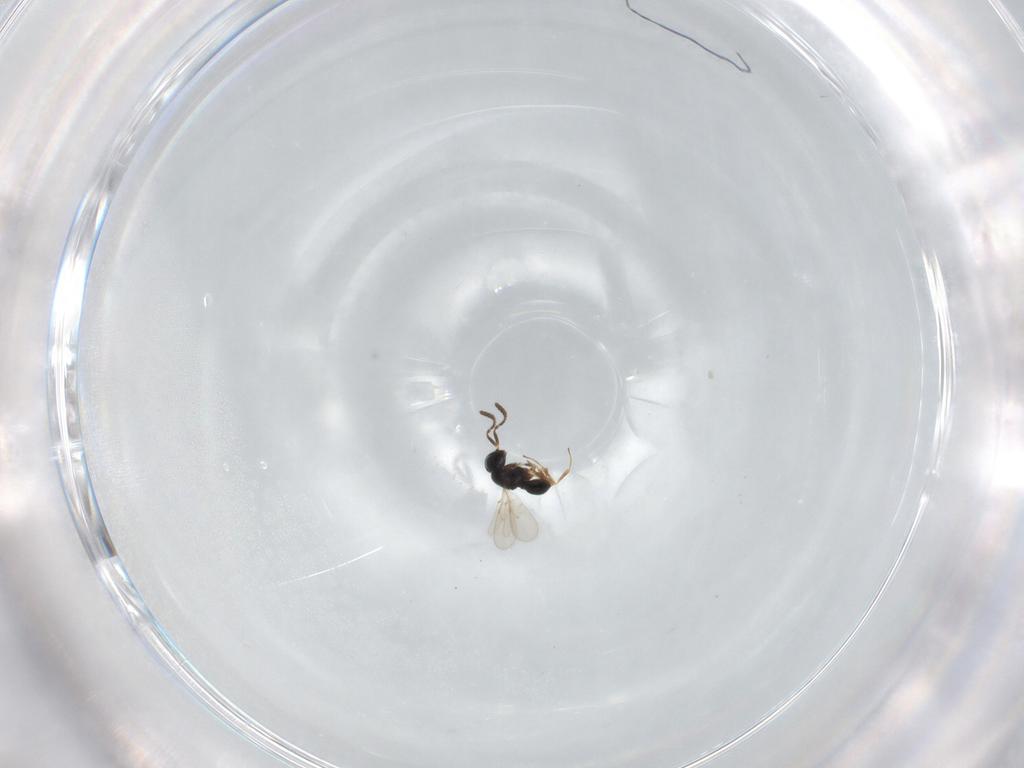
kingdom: Animalia
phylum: Arthropoda
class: Insecta
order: Hymenoptera
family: Scelionidae
